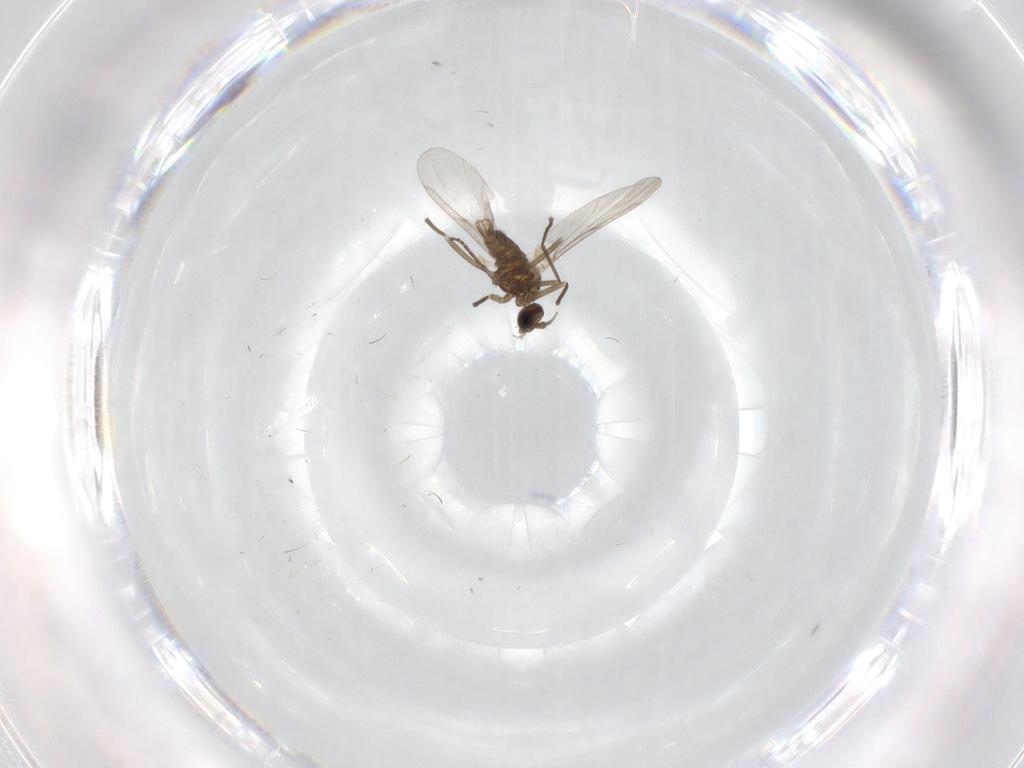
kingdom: Animalia
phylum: Arthropoda
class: Insecta
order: Diptera
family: Cecidomyiidae
